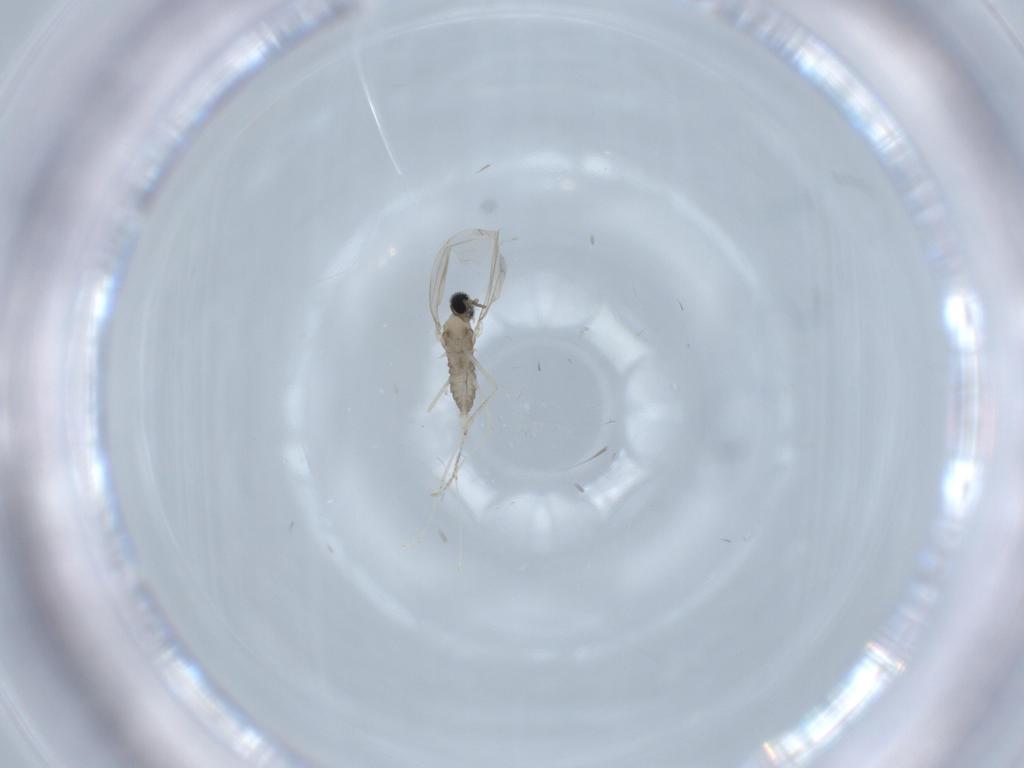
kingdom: Animalia
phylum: Arthropoda
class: Insecta
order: Diptera
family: Cecidomyiidae
